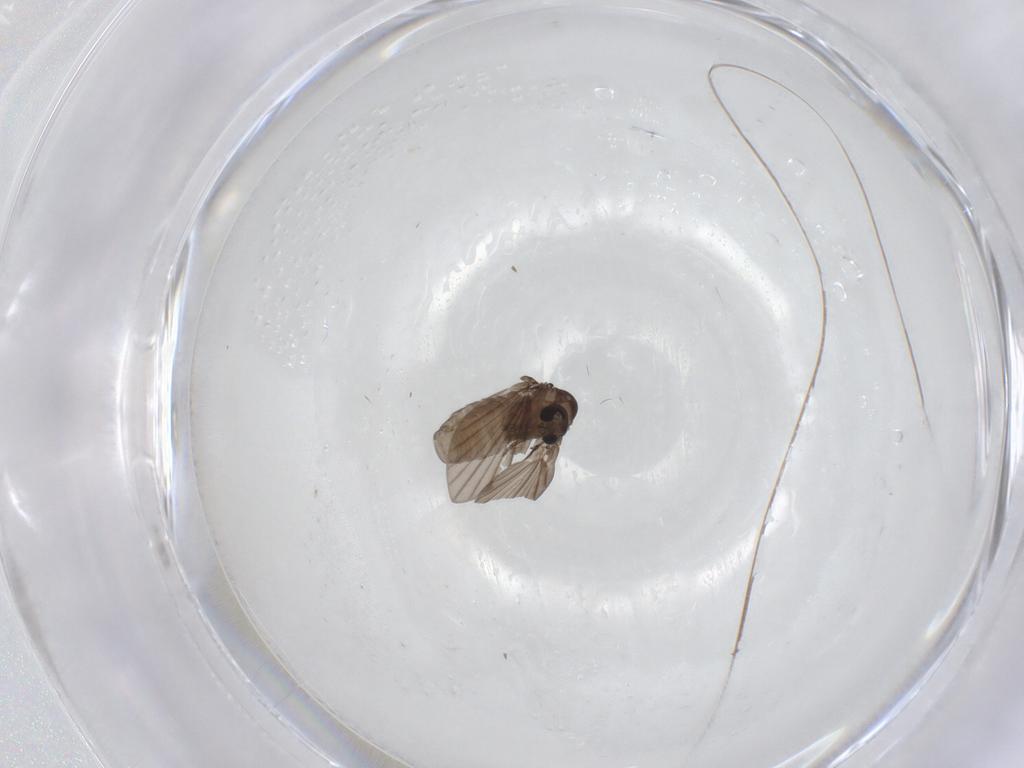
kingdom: Animalia
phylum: Arthropoda
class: Insecta
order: Diptera
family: Psychodidae
